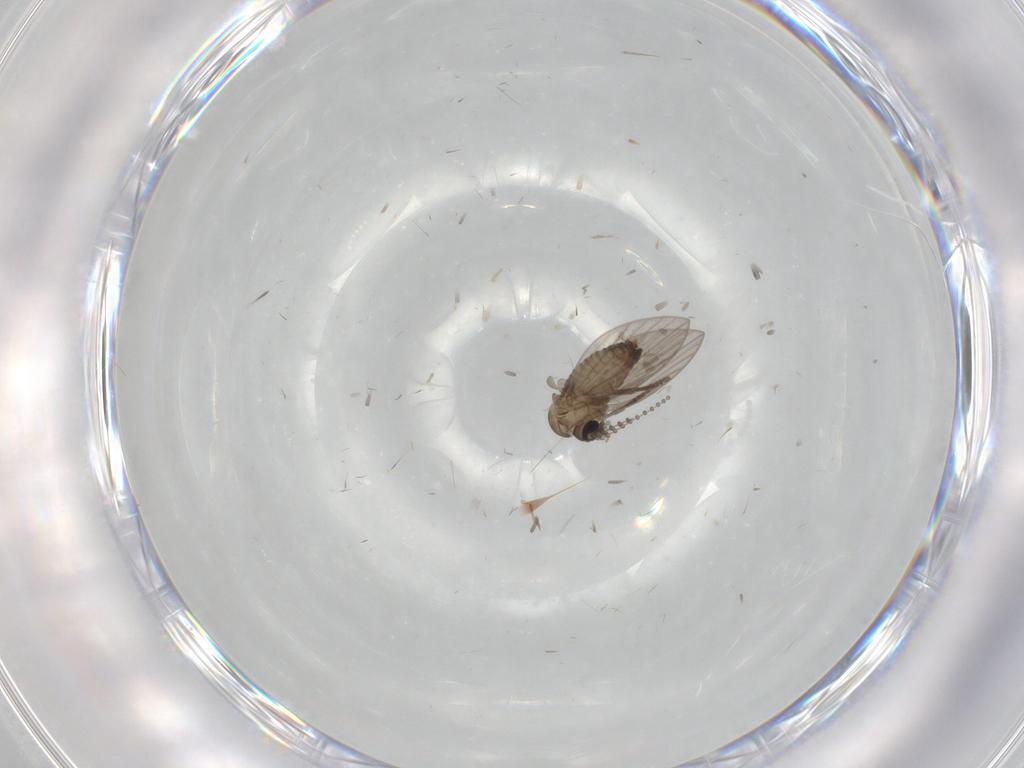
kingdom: Animalia
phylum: Arthropoda
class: Insecta
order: Diptera
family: Psychodidae
